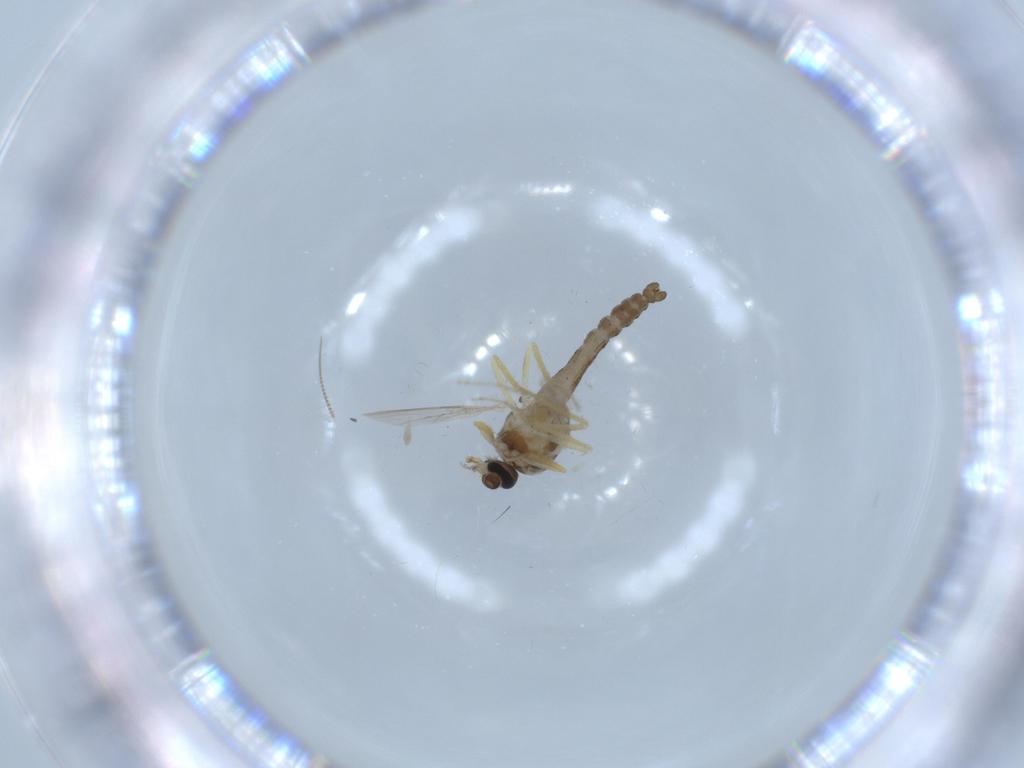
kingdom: Animalia
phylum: Arthropoda
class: Insecta
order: Diptera
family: Ceratopogonidae
